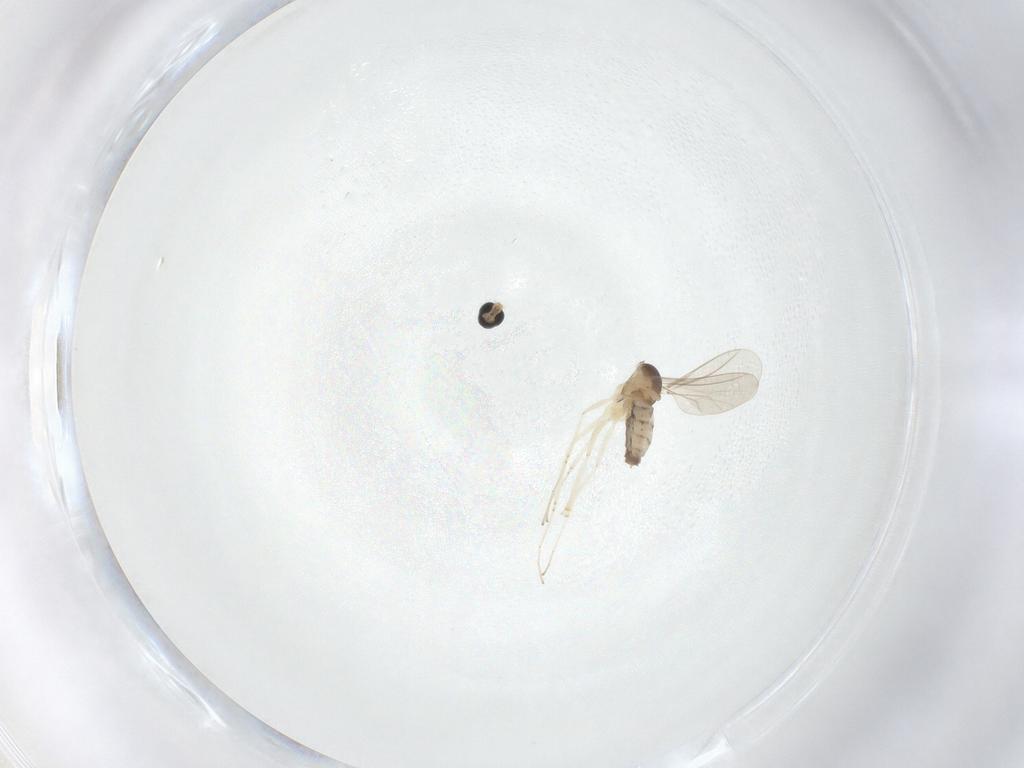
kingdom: Animalia
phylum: Arthropoda
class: Insecta
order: Diptera
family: Cecidomyiidae
